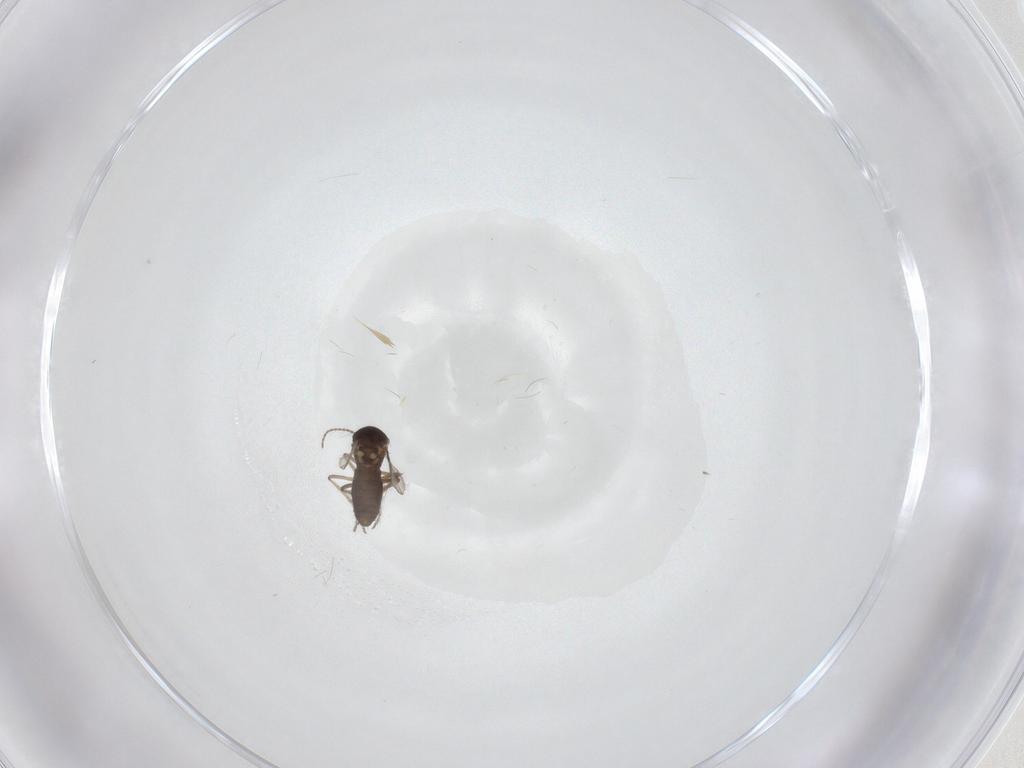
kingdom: Animalia
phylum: Arthropoda
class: Insecta
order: Diptera
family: Ceratopogonidae
